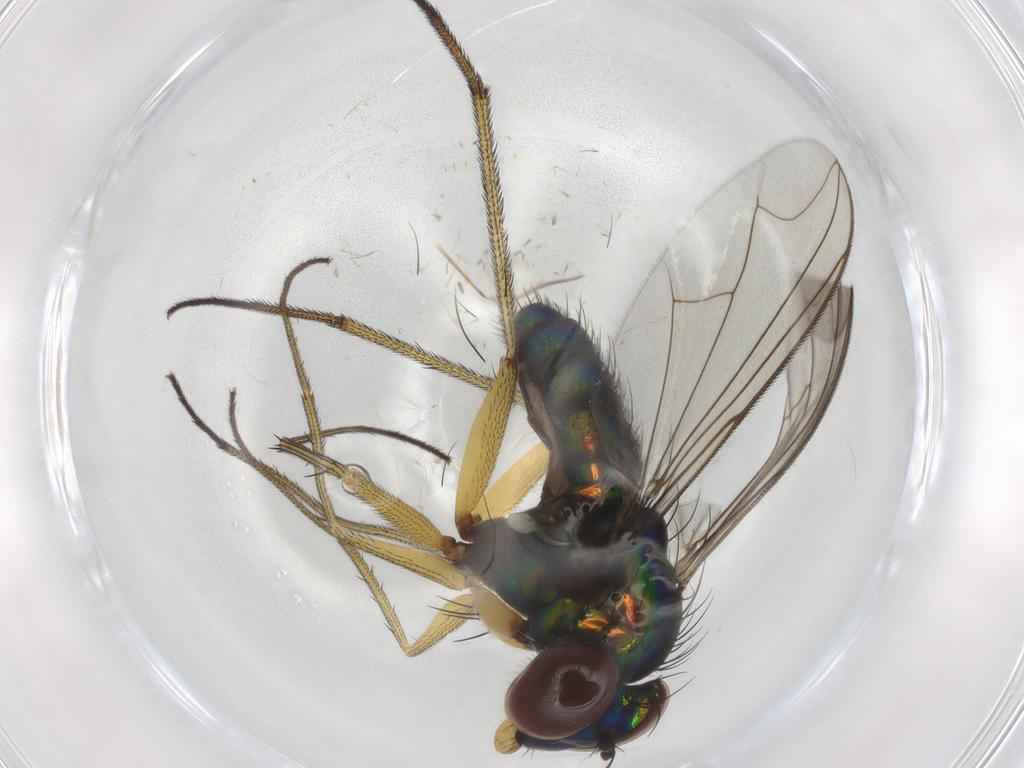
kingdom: Animalia
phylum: Arthropoda
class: Insecta
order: Diptera
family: Dolichopodidae
